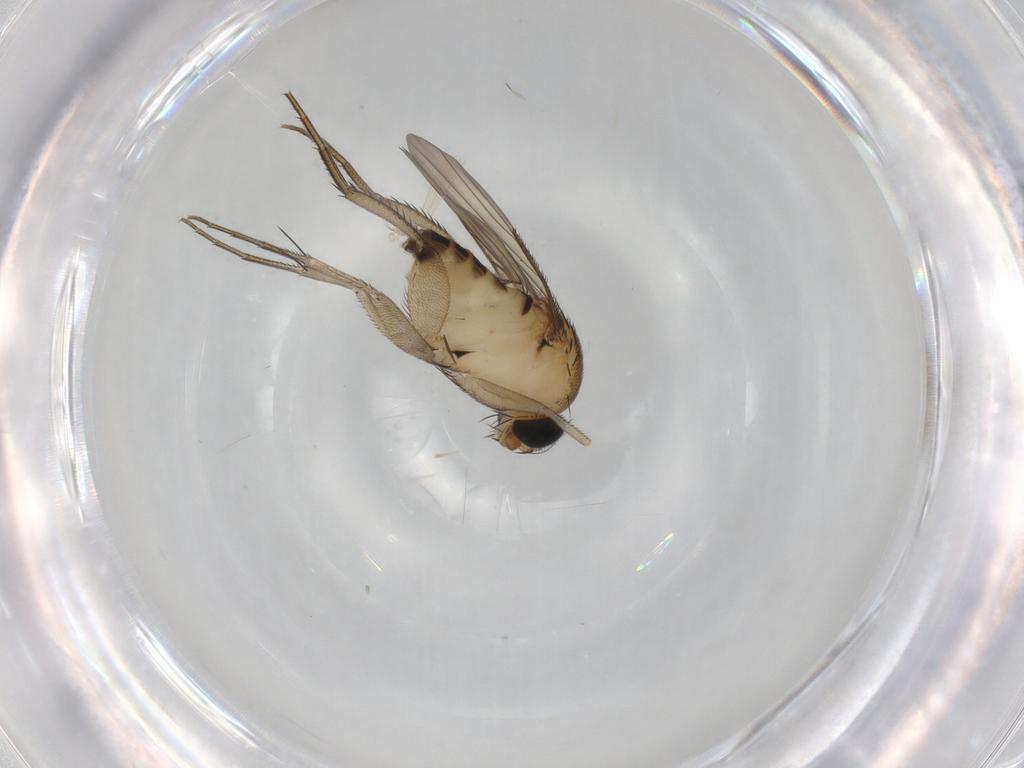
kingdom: Animalia
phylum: Arthropoda
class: Insecta
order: Diptera
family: Phoridae
